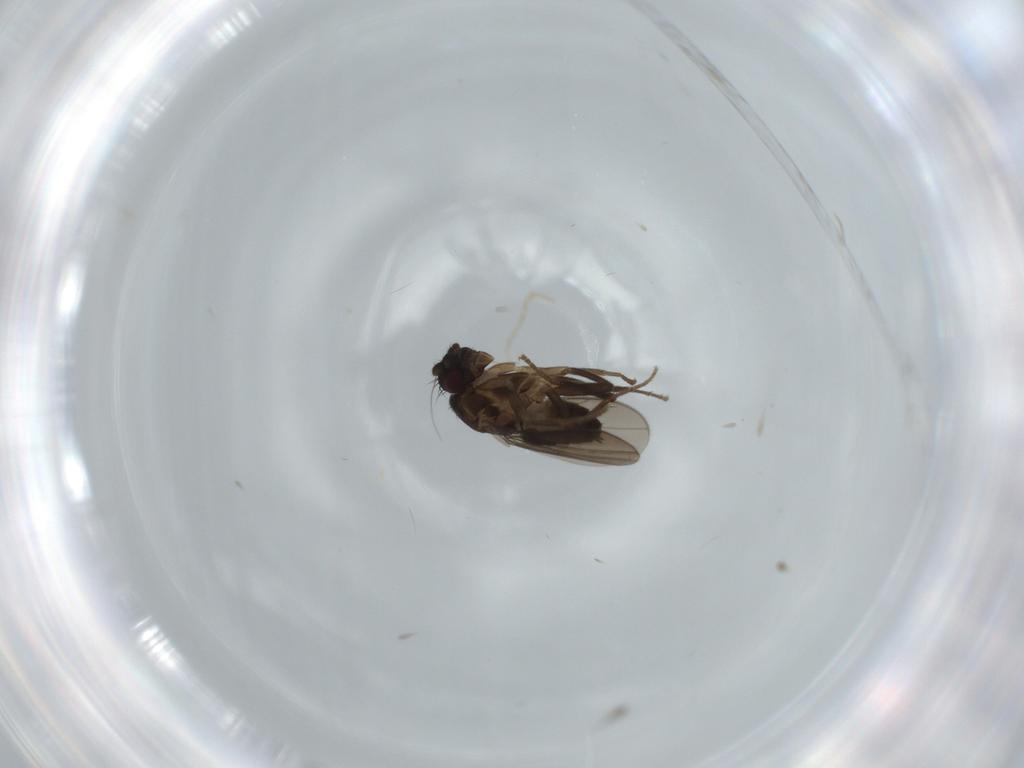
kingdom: Animalia
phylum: Arthropoda
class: Insecta
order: Diptera
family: Sphaeroceridae
